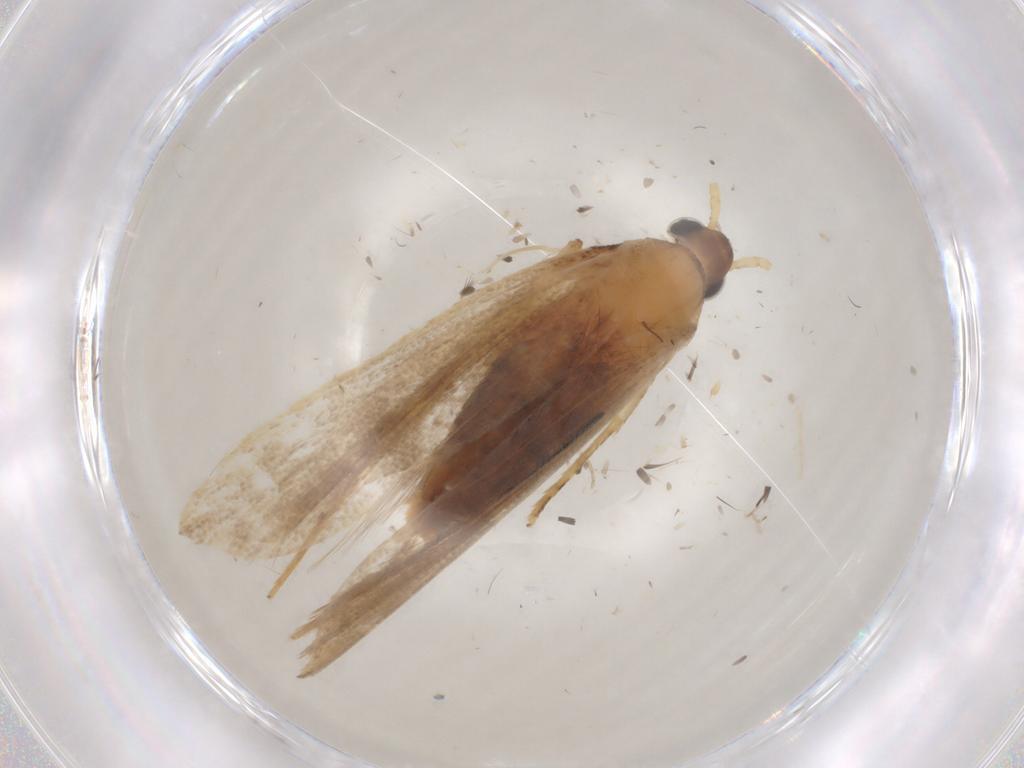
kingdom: Animalia
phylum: Arthropoda
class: Insecta
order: Lepidoptera
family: Lecithoceridae
